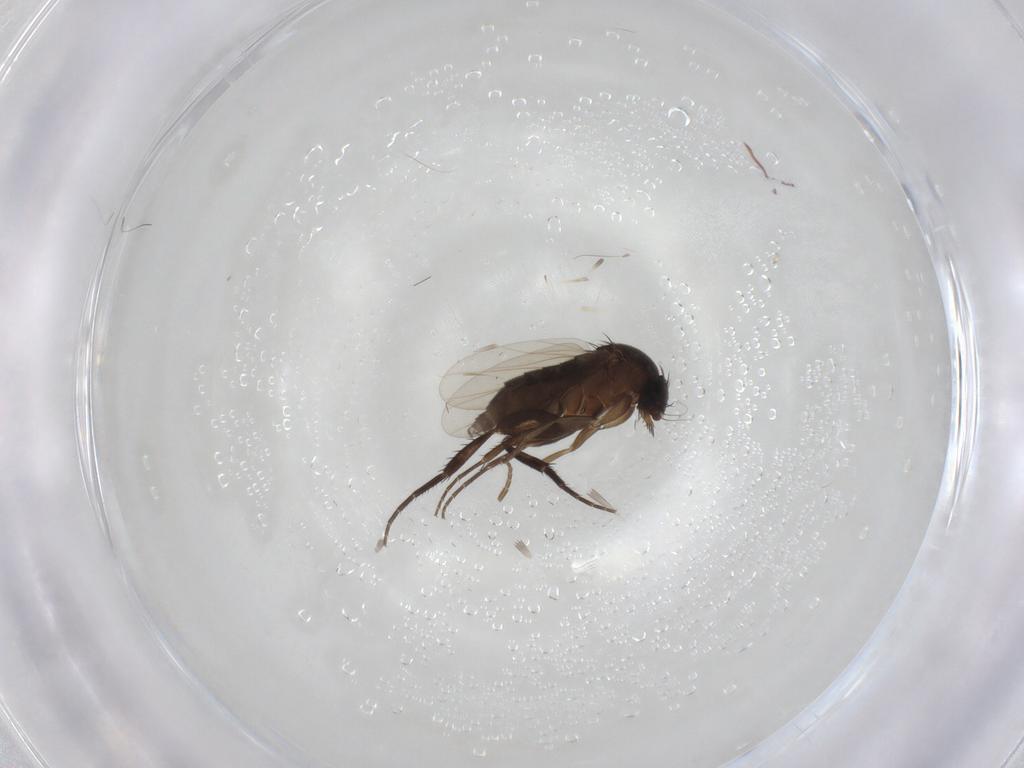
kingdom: Animalia
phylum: Arthropoda
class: Insecta
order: Diptera
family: Phoridae
